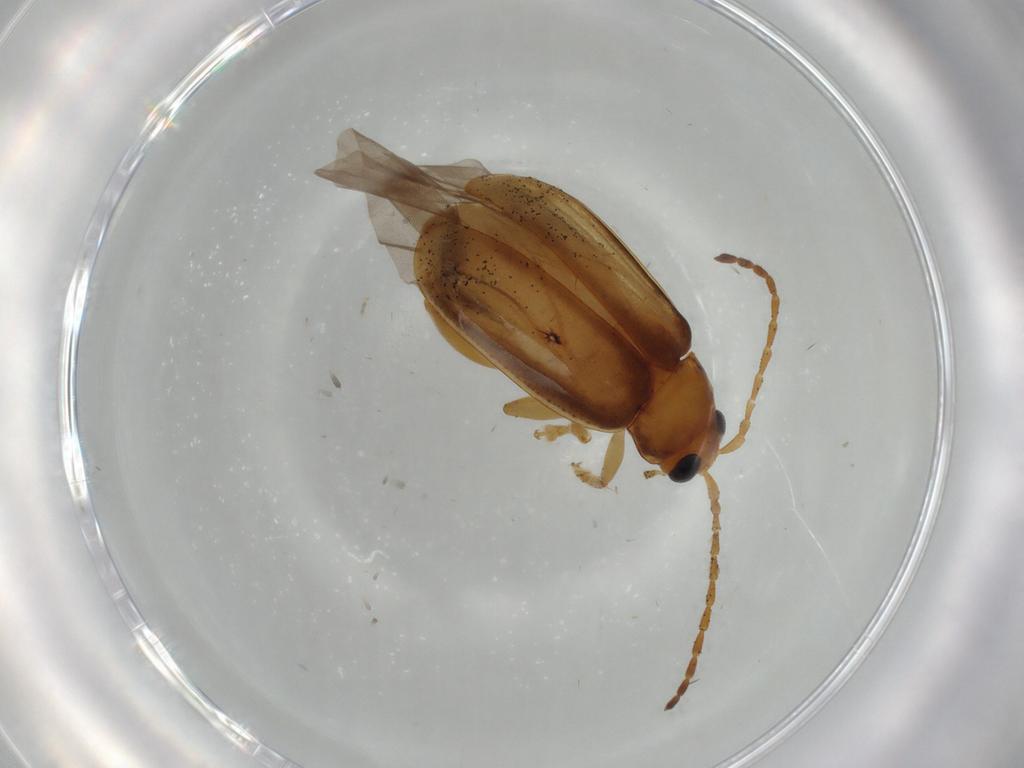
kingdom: Animalia
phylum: Arthropoda
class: Insecta
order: Coleoptera
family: Chrysomelidae
